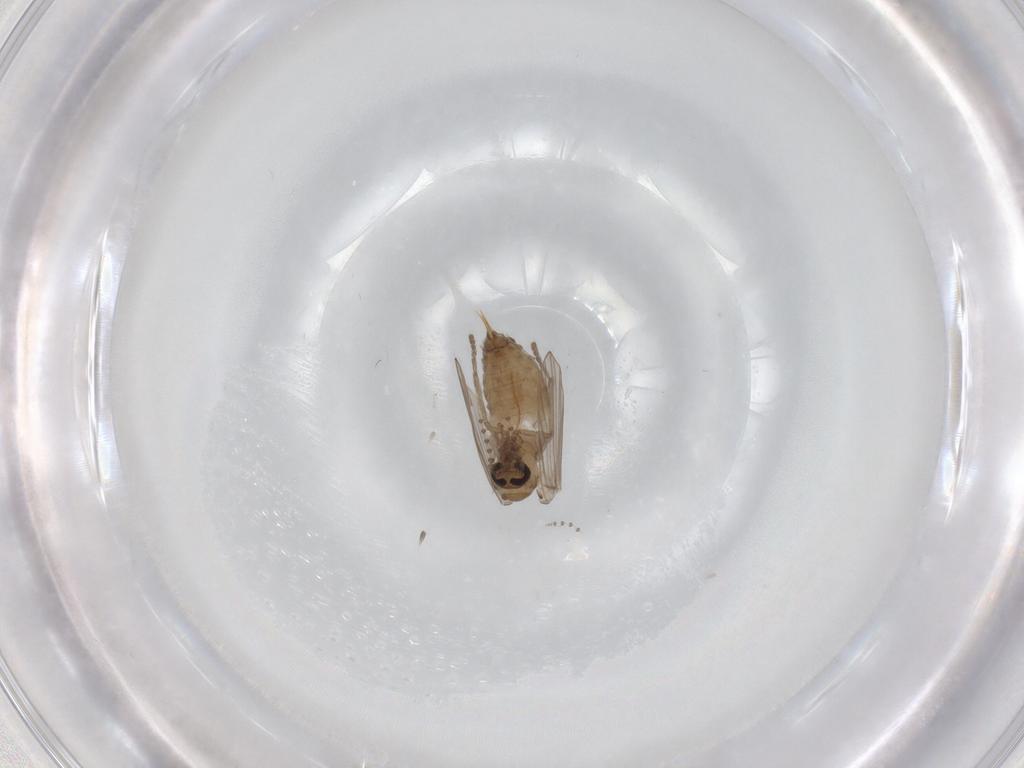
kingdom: Animalia
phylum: Arthropoda
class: Insecta
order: Diptera
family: Psychodidae
